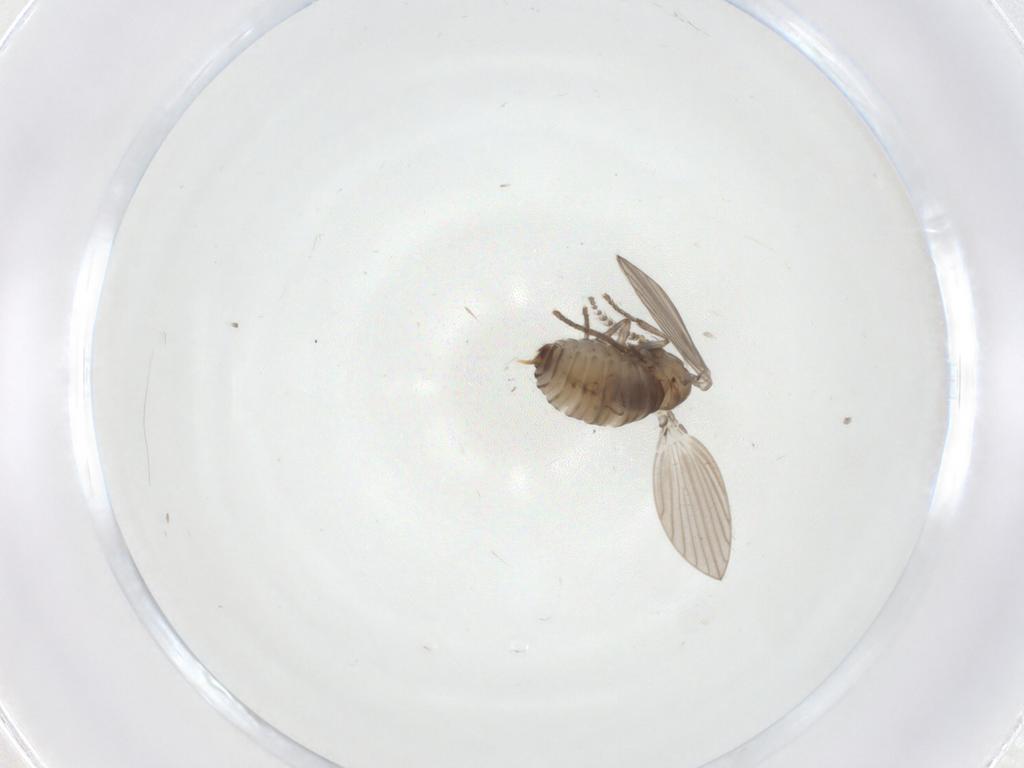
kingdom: Animalia
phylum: Arthropoda
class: Insecta
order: Diptera
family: Psychodidae
